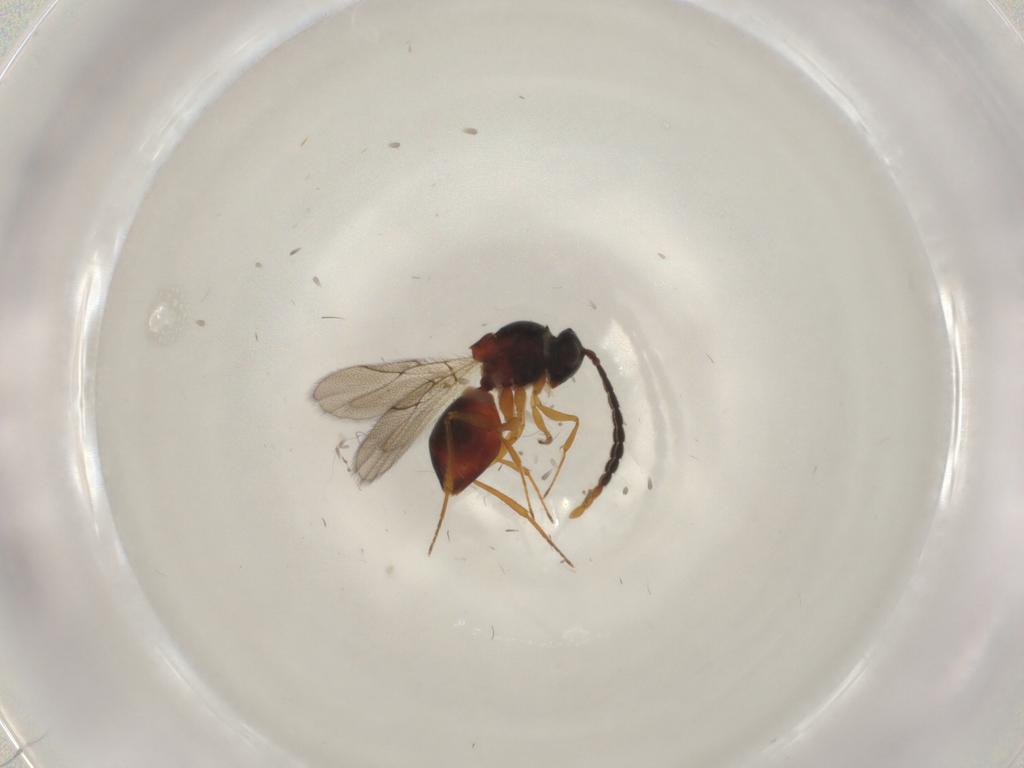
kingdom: Animalia
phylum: Arthropoda
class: Insecta
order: Hymenoptera
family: Figitidae
